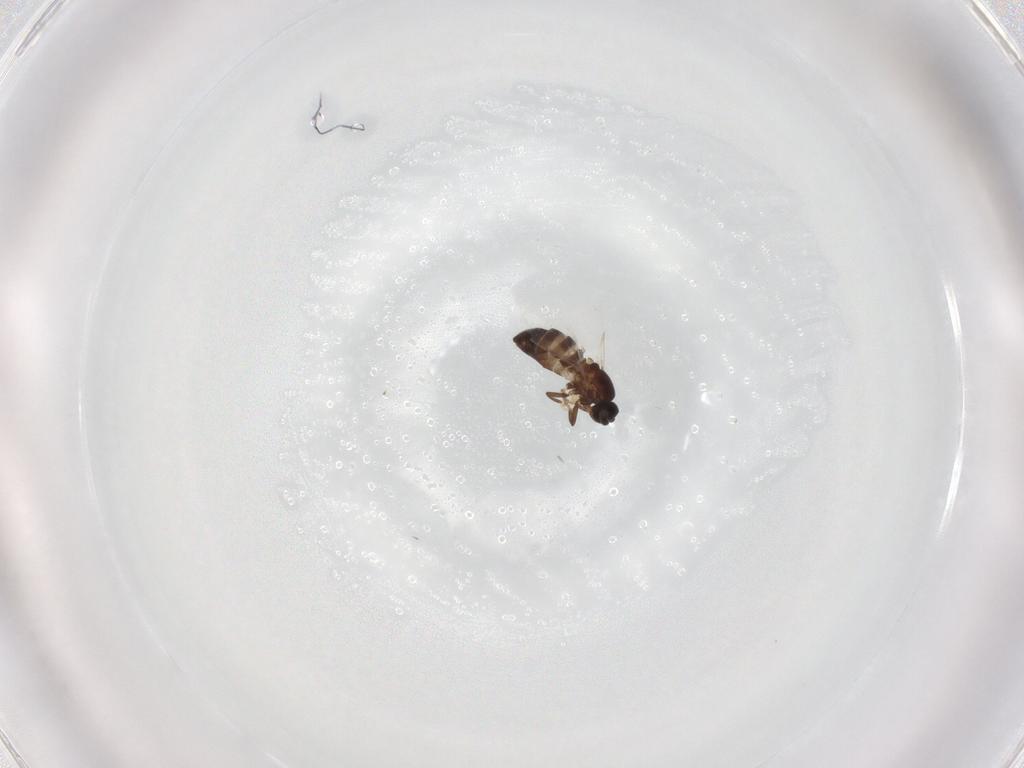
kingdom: Animalia
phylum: Arthropoda
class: Insecta
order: Diptera
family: Scatopsidae
